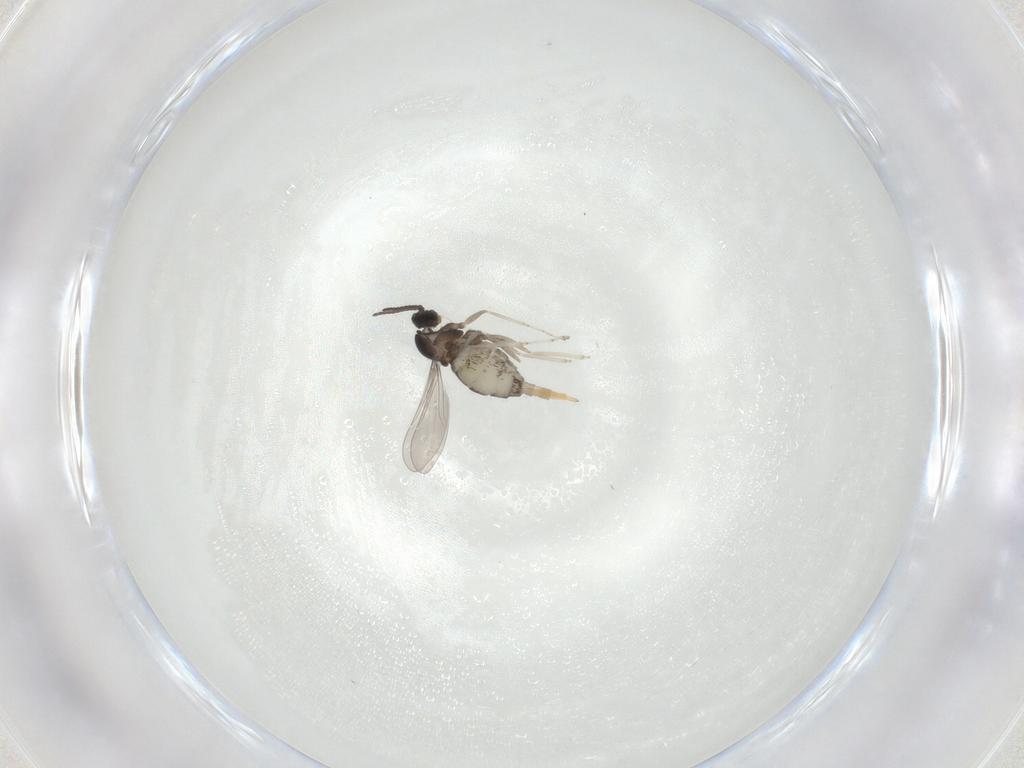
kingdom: Animalia
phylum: Arthropoda
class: Insecta
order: Diptera
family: Cecidomyiidae
